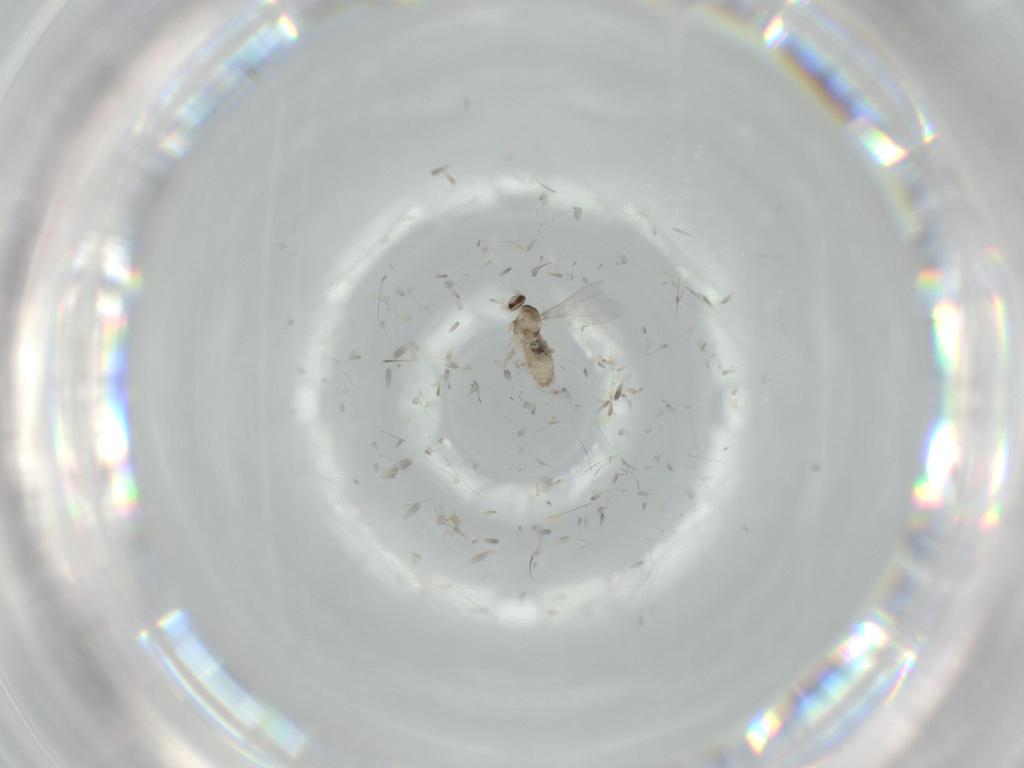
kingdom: Animalia
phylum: Arthropoda
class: Insecta
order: Diptera
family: Cecidomyiidae
